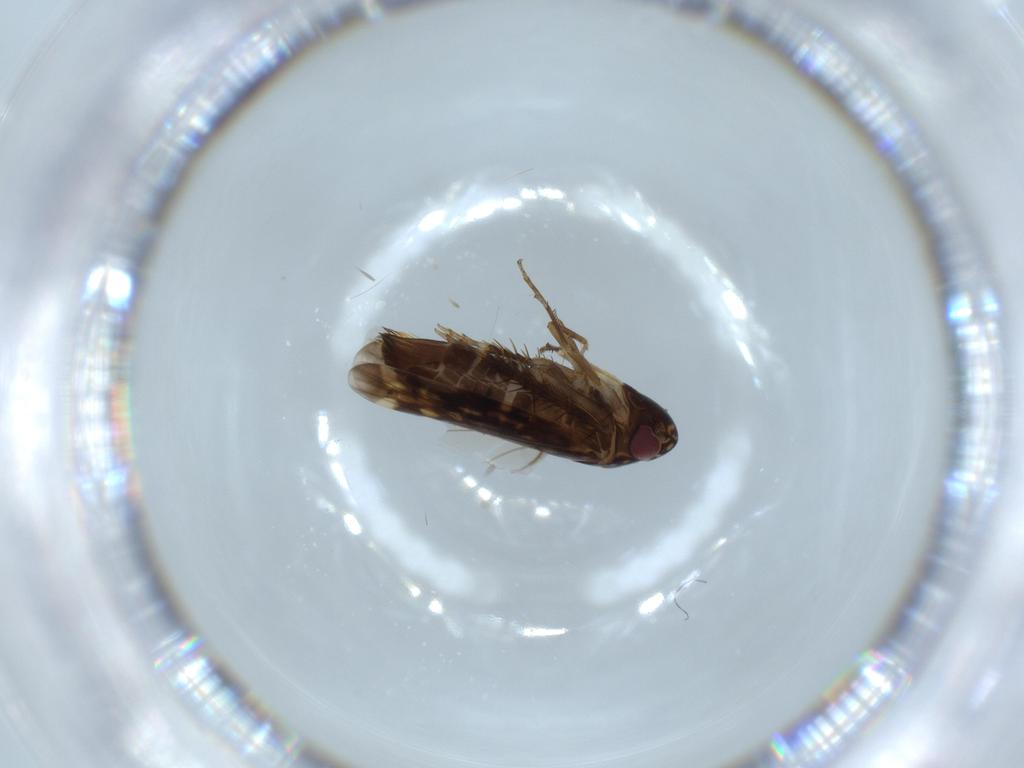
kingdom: Animalia
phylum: Arthropoda
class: Insecta
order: Hemiptera
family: Cicadellidae
